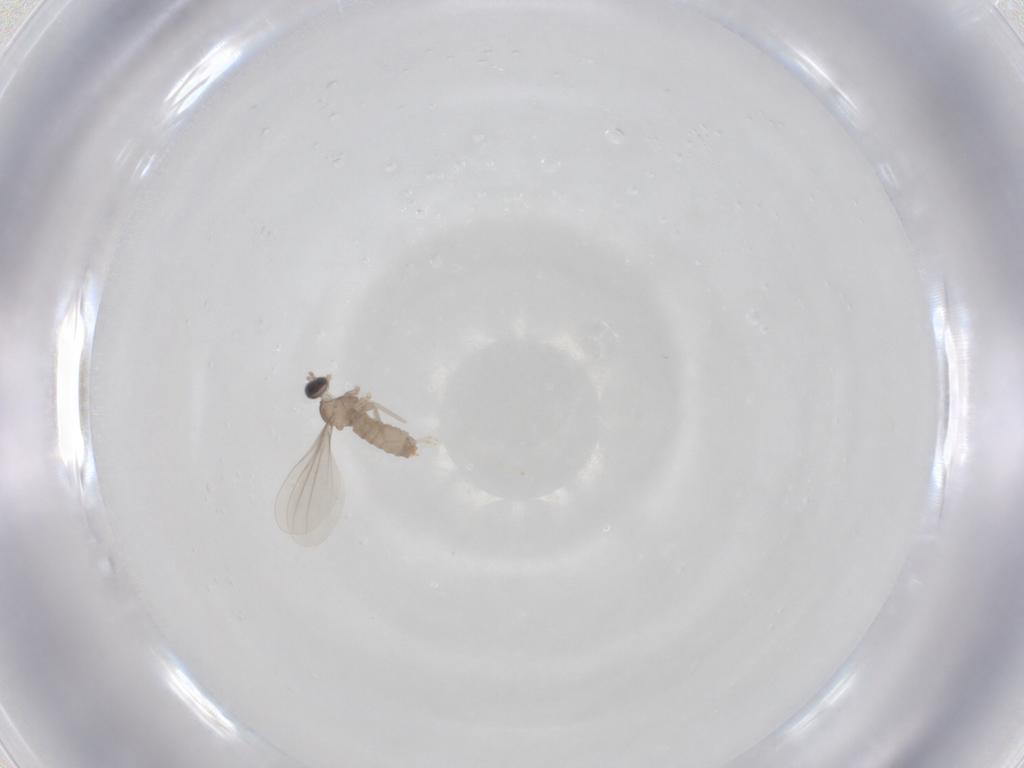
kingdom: Animalia
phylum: Arthropoda
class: Insecta
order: Diptera
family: Cecidomyiidae
